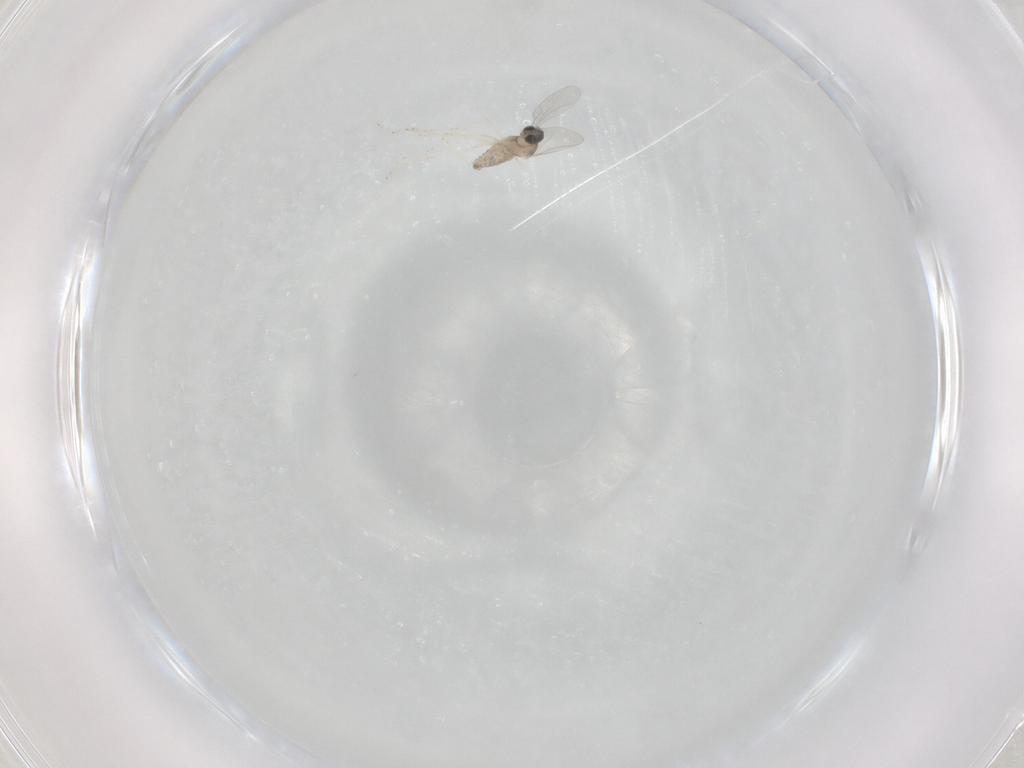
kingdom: Animalia
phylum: Arthropoda
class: Insecta
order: Diptera
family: Cecidomyiidae
